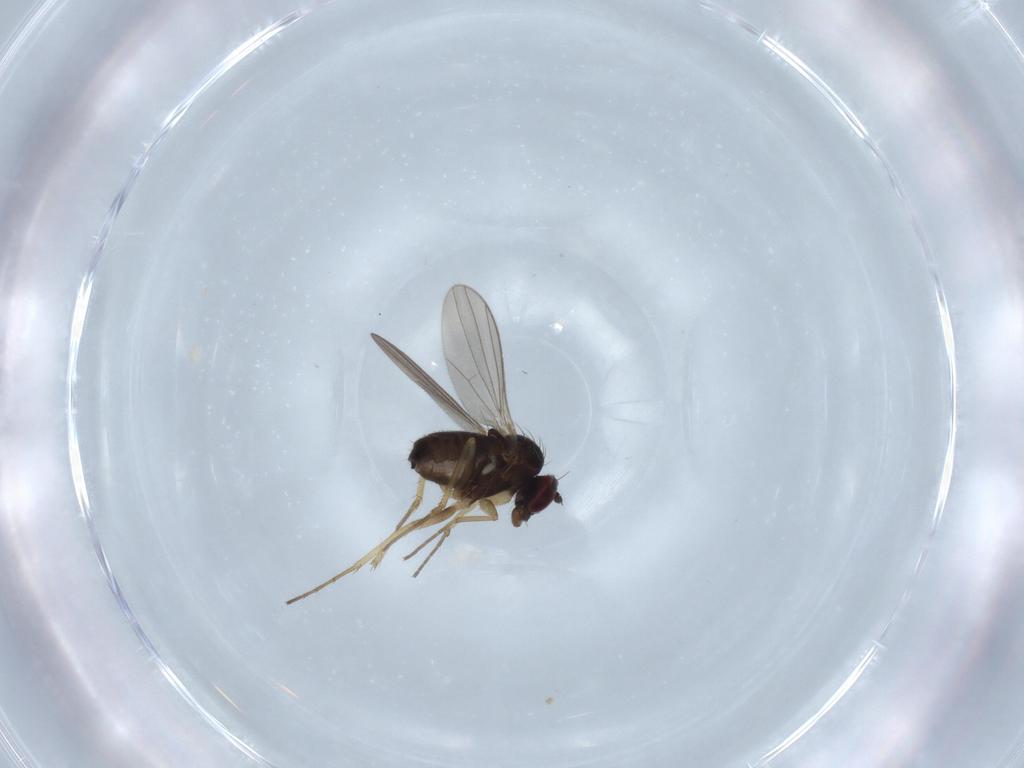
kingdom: Animalia
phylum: Arthropoda
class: Insecta
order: Diptera
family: Dolichopodidae
